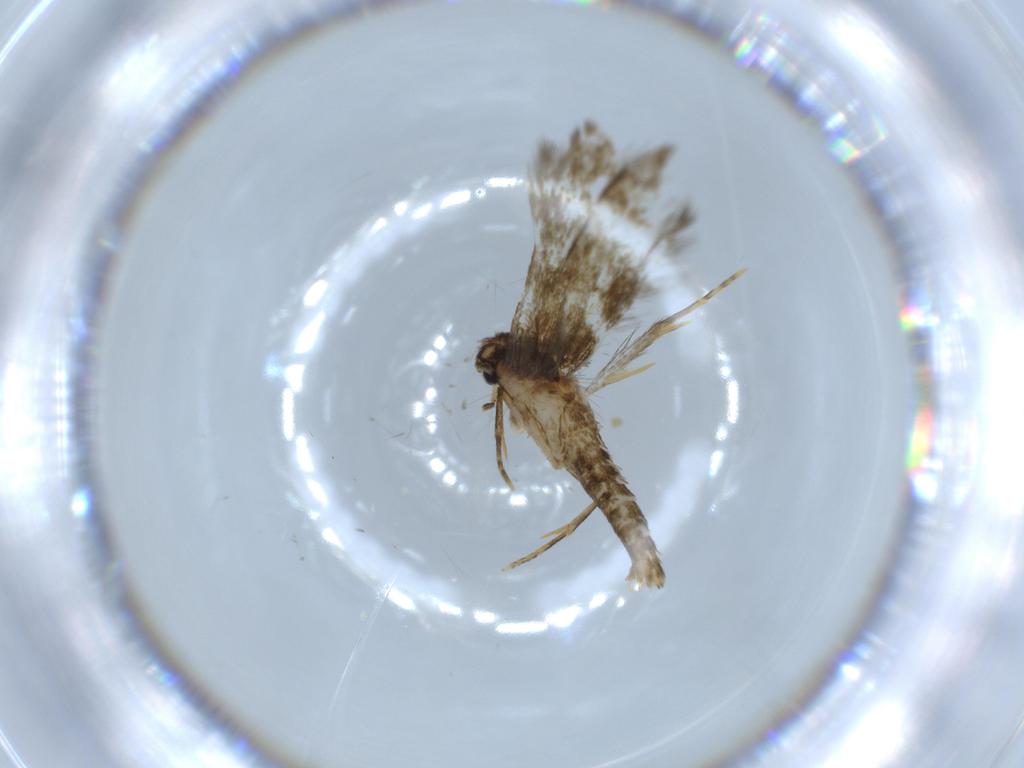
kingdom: Animalia
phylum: Arthropoda
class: Insecta
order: Lepidoptera
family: Tineidae
